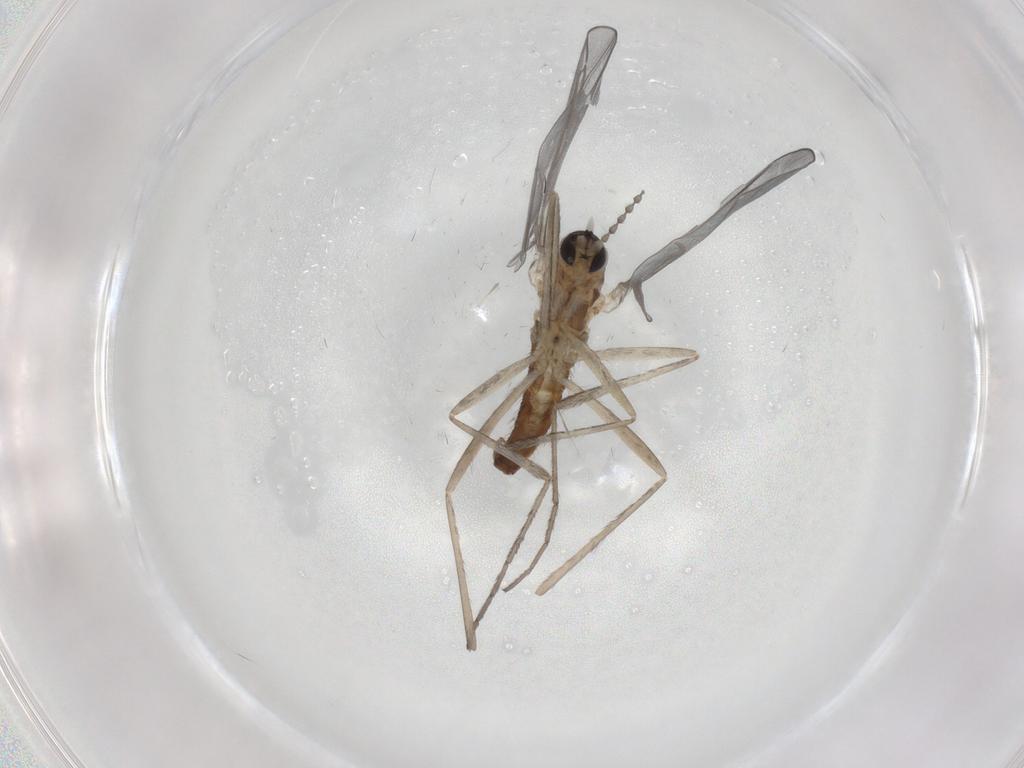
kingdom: Animalia
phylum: Arthropoda
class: Insecta
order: Diptera
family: Cecidomyiidae
